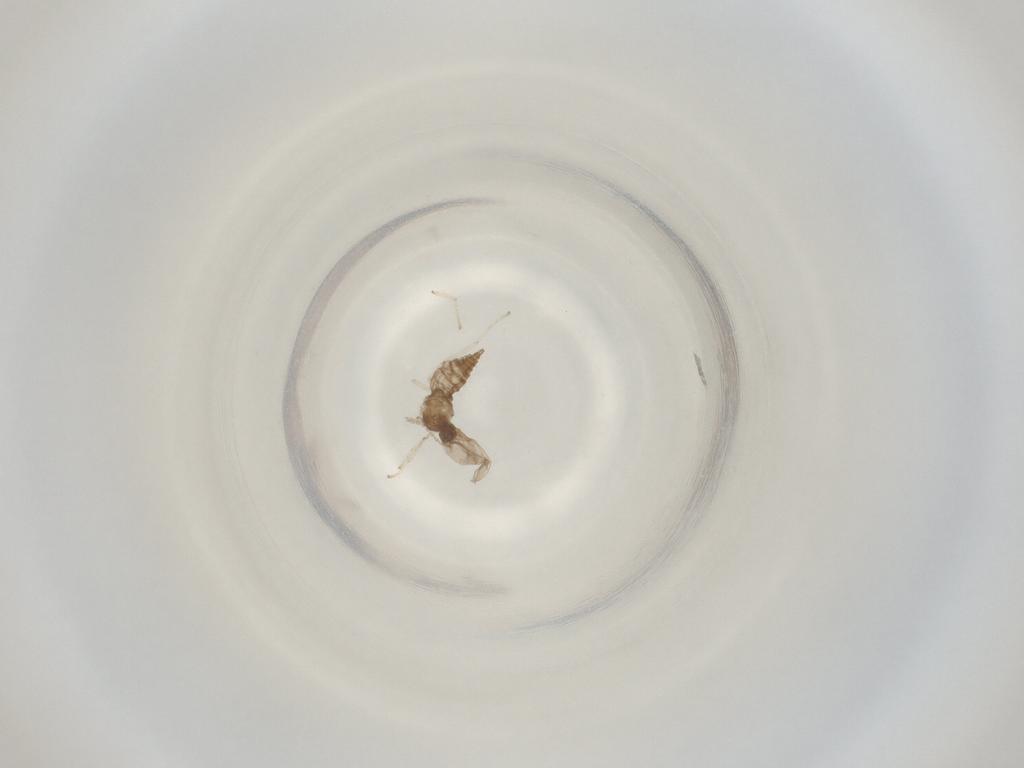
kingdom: Animalia
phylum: Arthropoda
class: Insecta
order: Diptera
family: Cecidomyiidae
